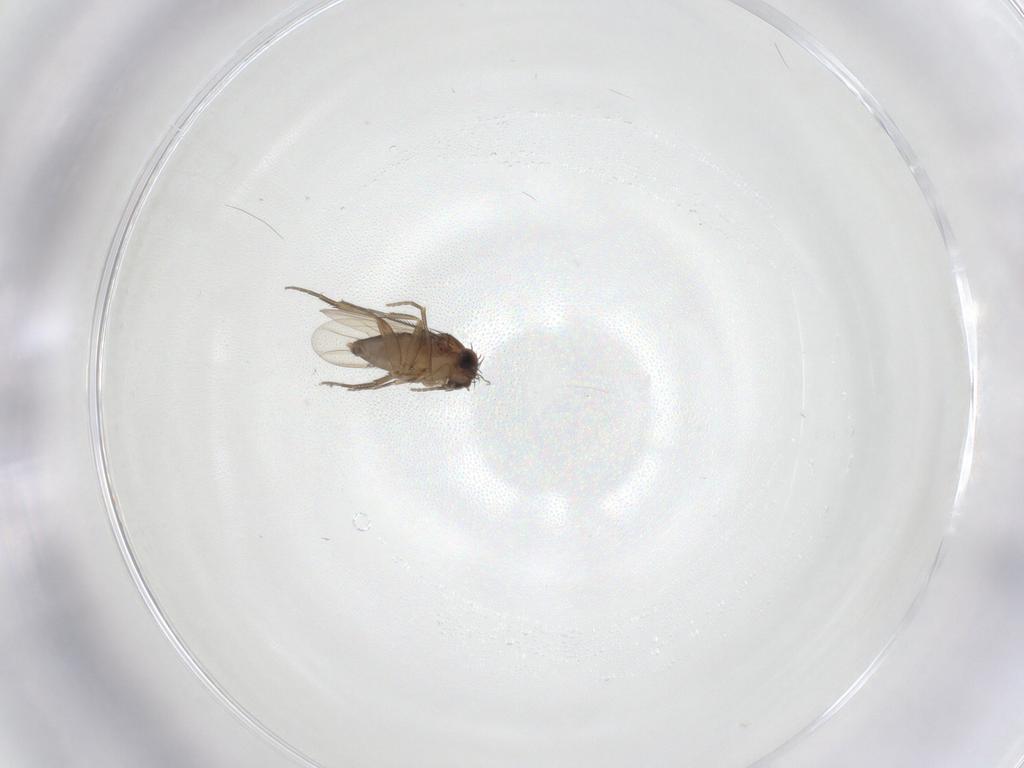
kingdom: Animalia
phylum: Arthropoda
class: Insecta
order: Diptera
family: Phoridae
